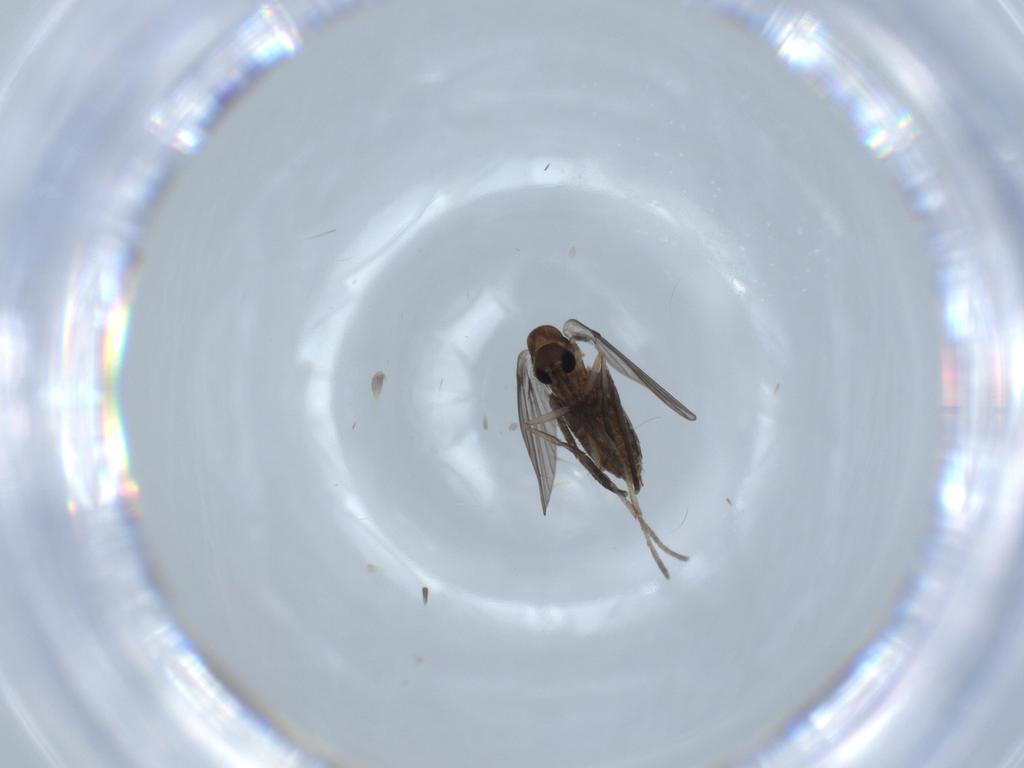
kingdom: Animalia
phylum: Arthropoda
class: Insecta
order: Diptera
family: Psychodidae
